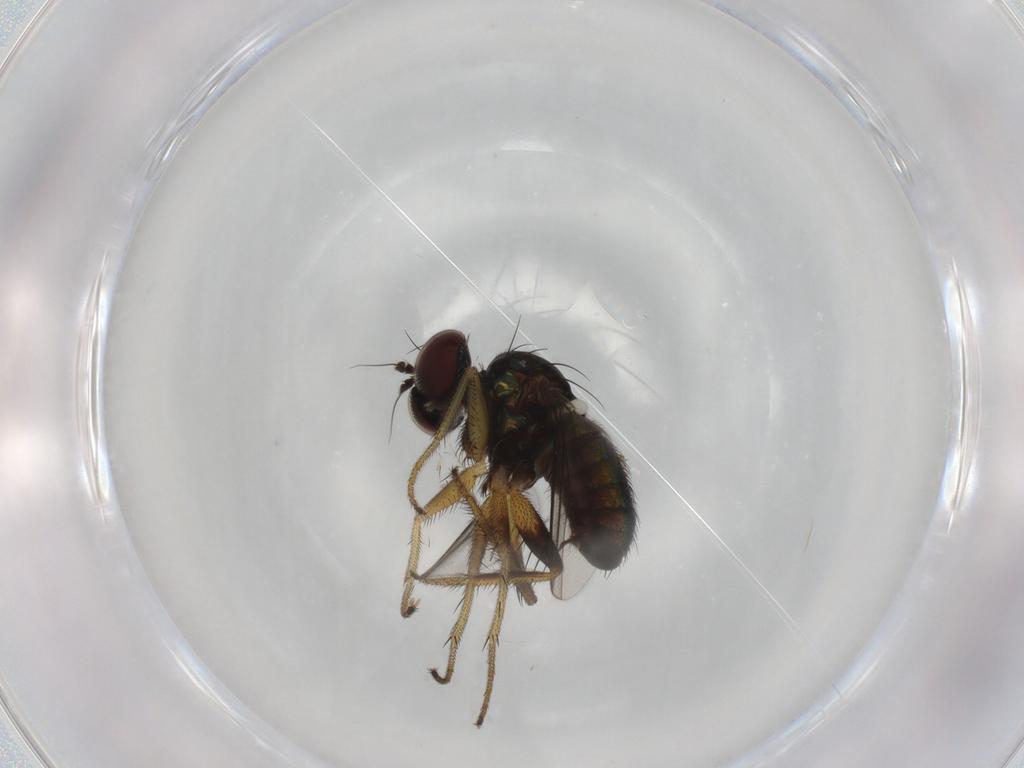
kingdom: Animalia
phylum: Arthropoda
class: Insecta
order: Diptera
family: Dolichopodidae
